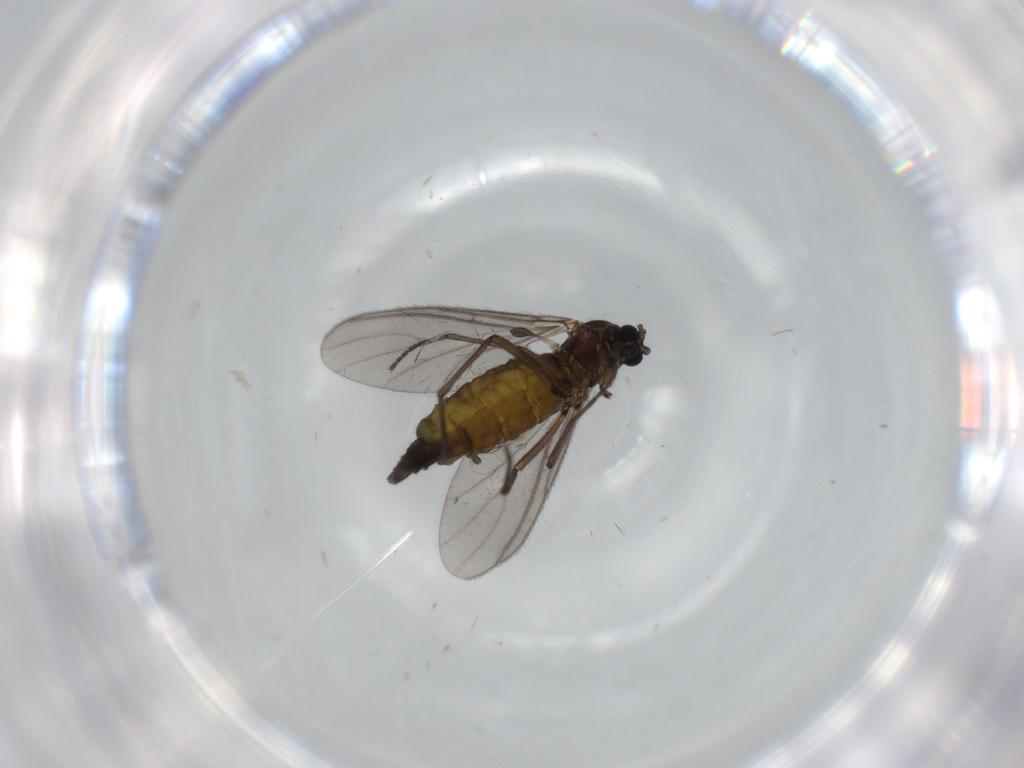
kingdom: Animalia
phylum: Arthropoda
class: Insecta
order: Diptera
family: Sciaridae
